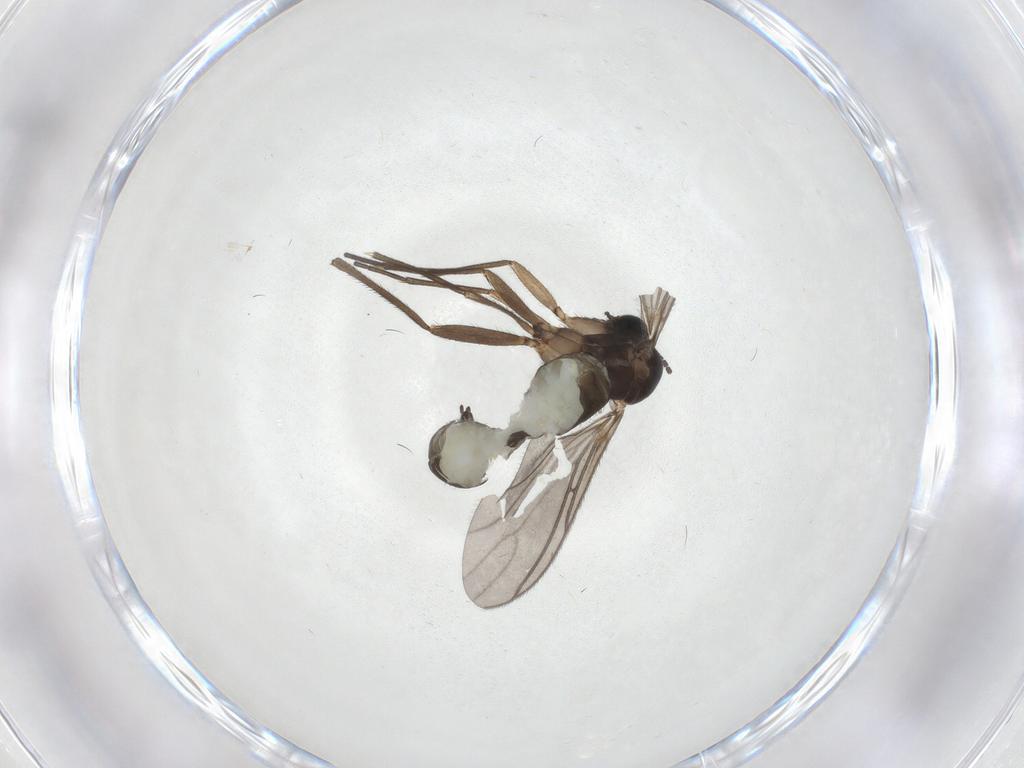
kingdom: Animalia
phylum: Arthropoda
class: Insecta
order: Diptera
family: Sciaridae
